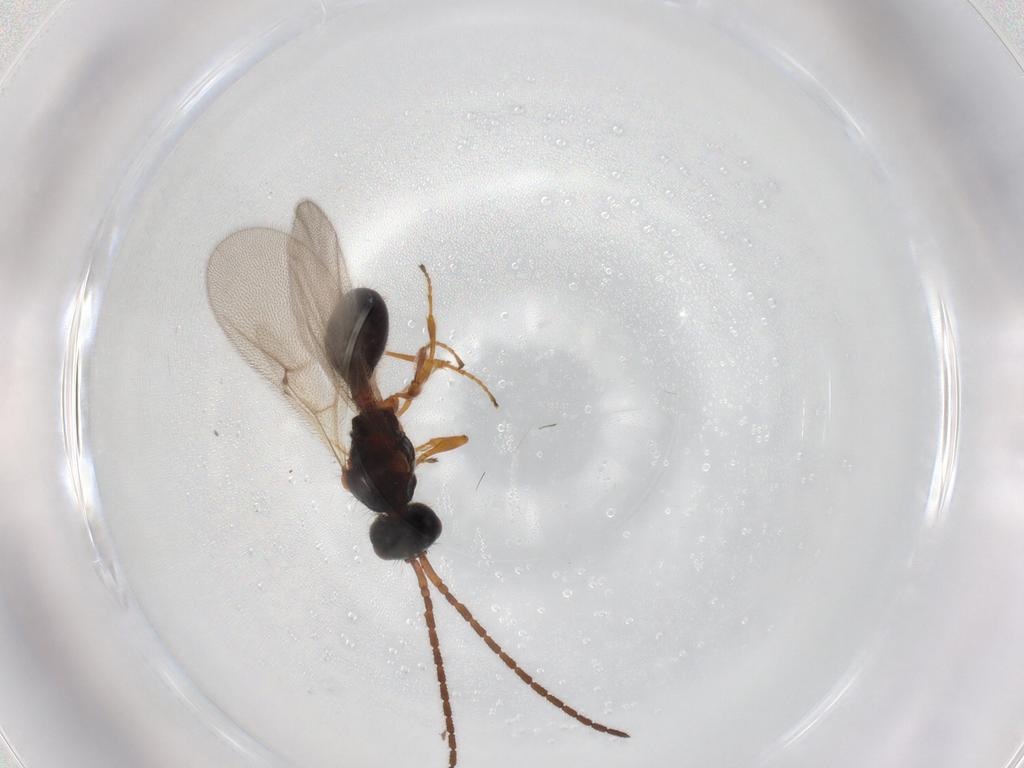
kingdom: Animalia
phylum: Arthropoda
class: Insecta
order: Hymenoptera
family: Diapriidae
